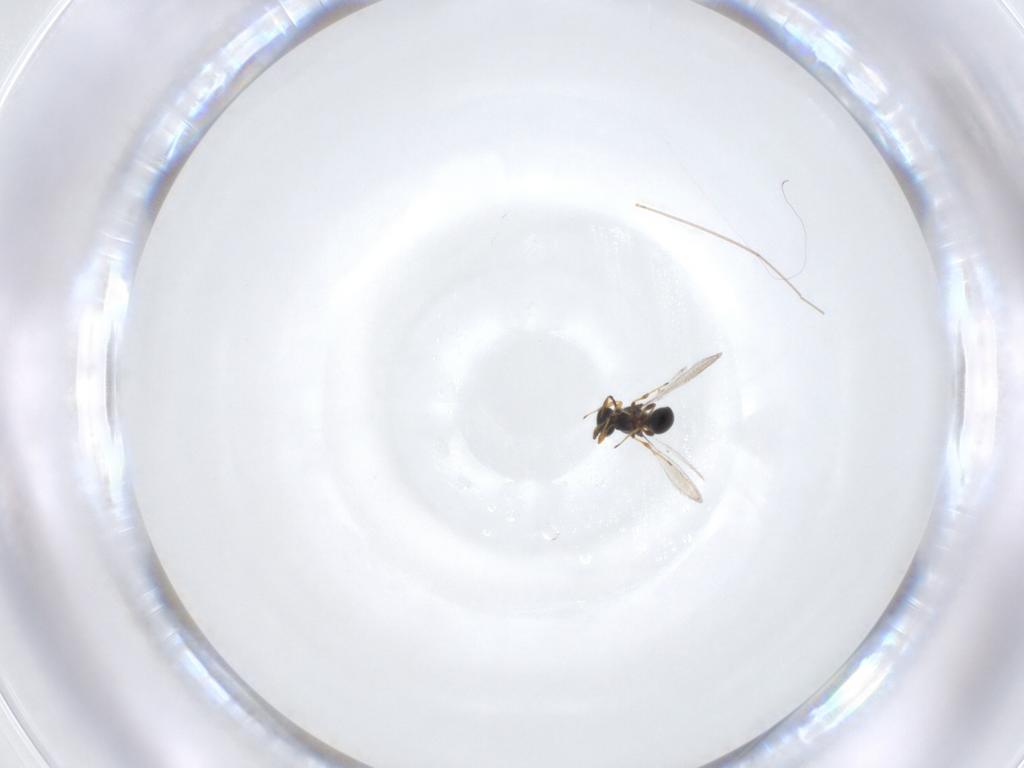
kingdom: Animalia
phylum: Arthropoda
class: Insecta
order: Hymenoptera
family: Platygastridae
